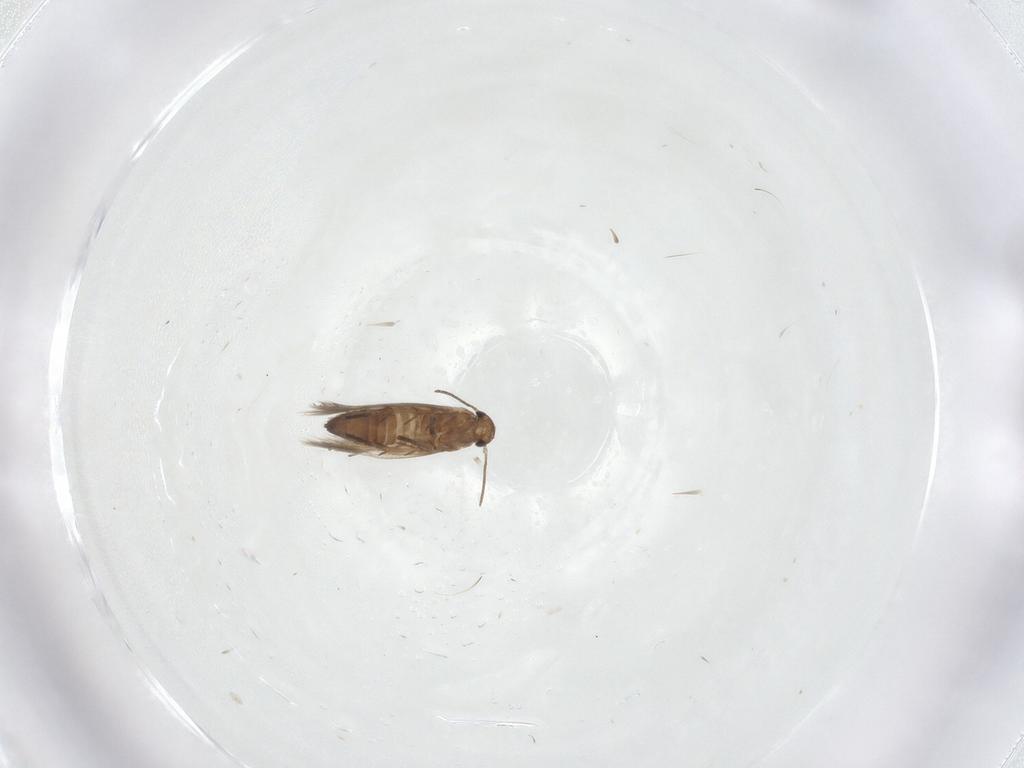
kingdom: Animalia
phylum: Arthropoda
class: Insecta
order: Lepidoptera
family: Heliozelidae
